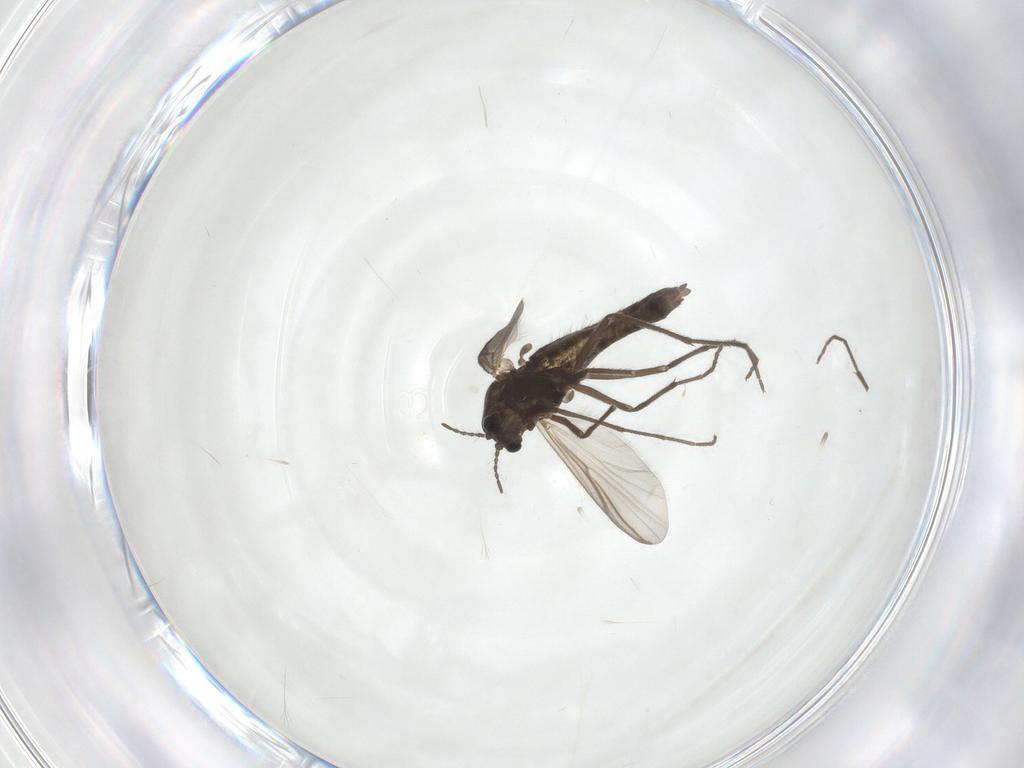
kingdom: Animalia
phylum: Arthropoda
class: Insecta
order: Diptera
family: Chironomidae
